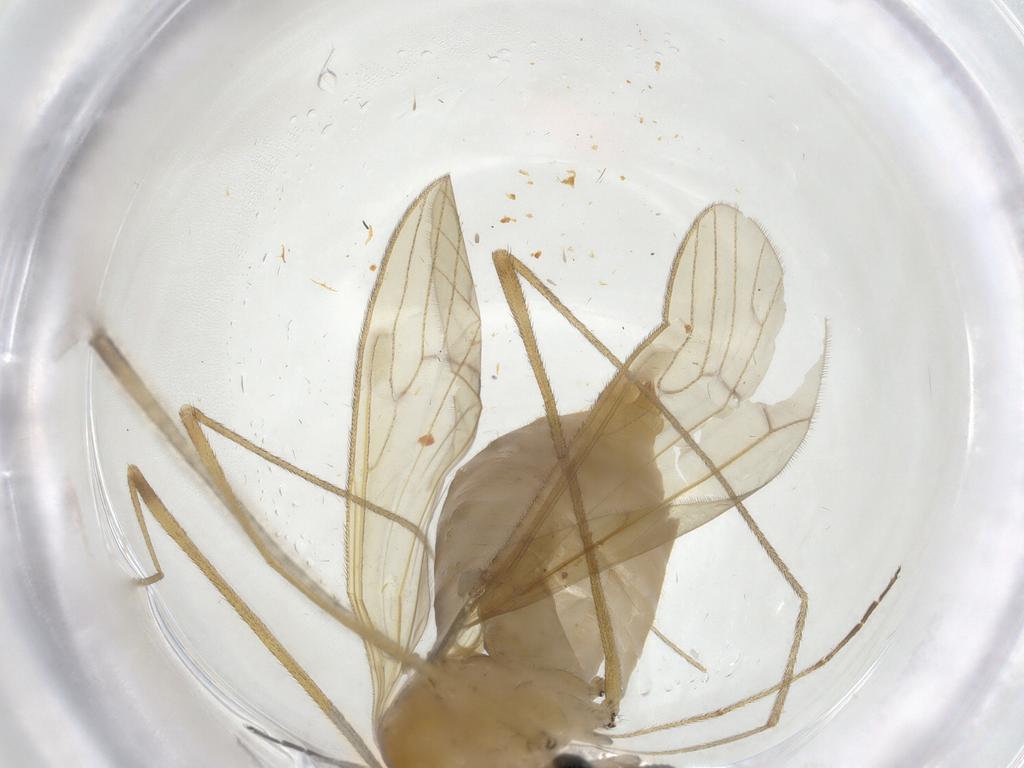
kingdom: Animalia
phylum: Arthropoda
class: Insecta
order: Diptera
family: Limoniidae
